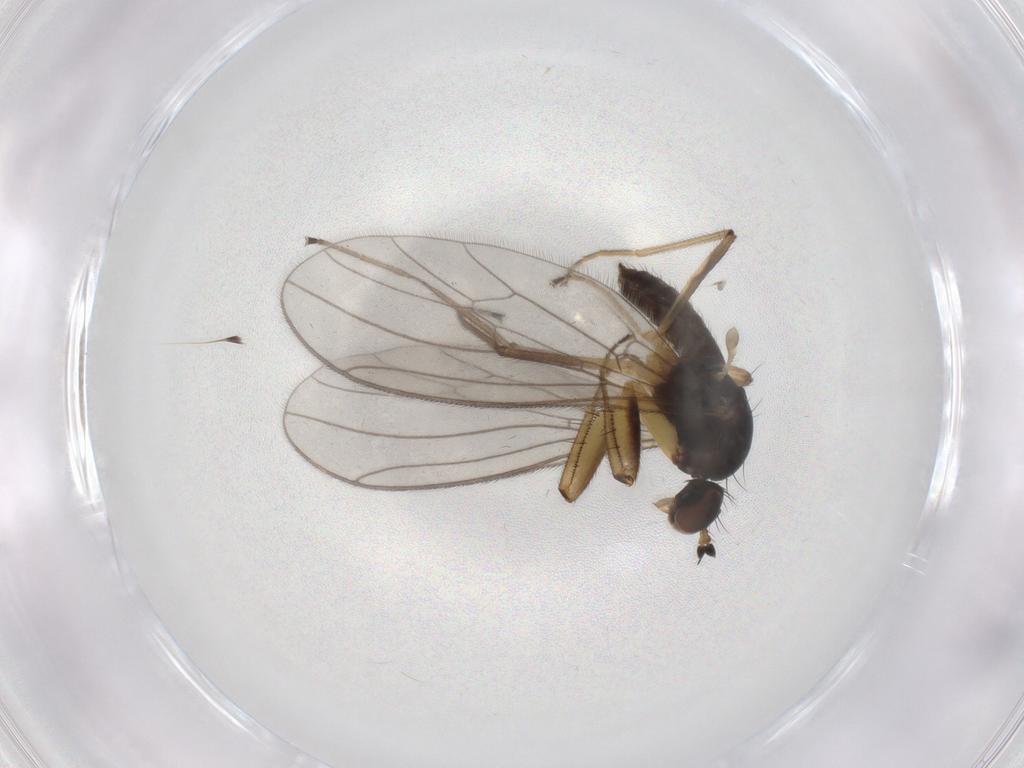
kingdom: Animalia
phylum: Arthropoda
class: Insecta
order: Diptera
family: Empididae
